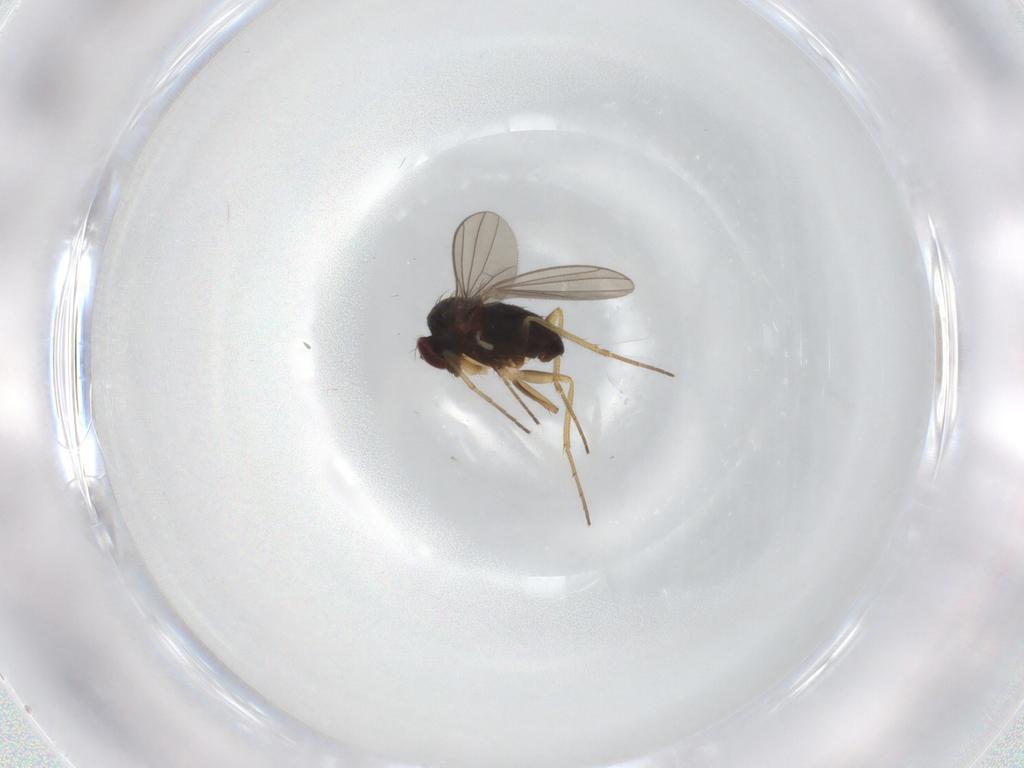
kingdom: Animalia
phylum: Arthropoda
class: Insecta
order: Diptera
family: Dolichopodidae
